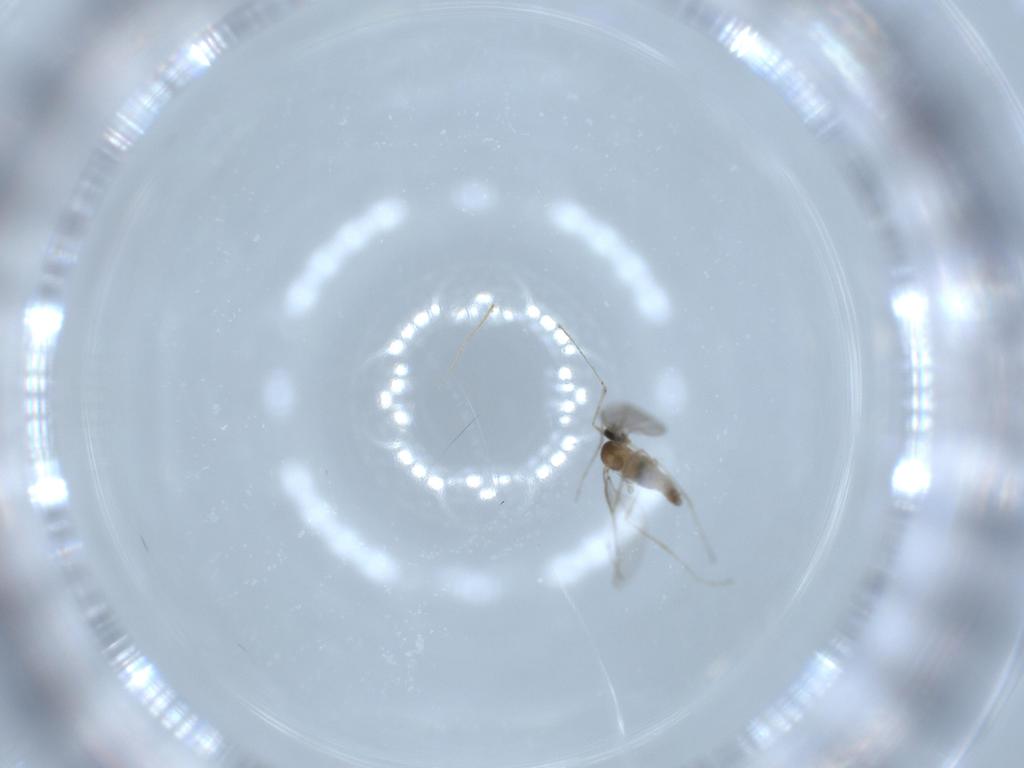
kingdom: Animalia
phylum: Arthropoda
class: Insecta
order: Diptera
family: Cecidomyiidae
